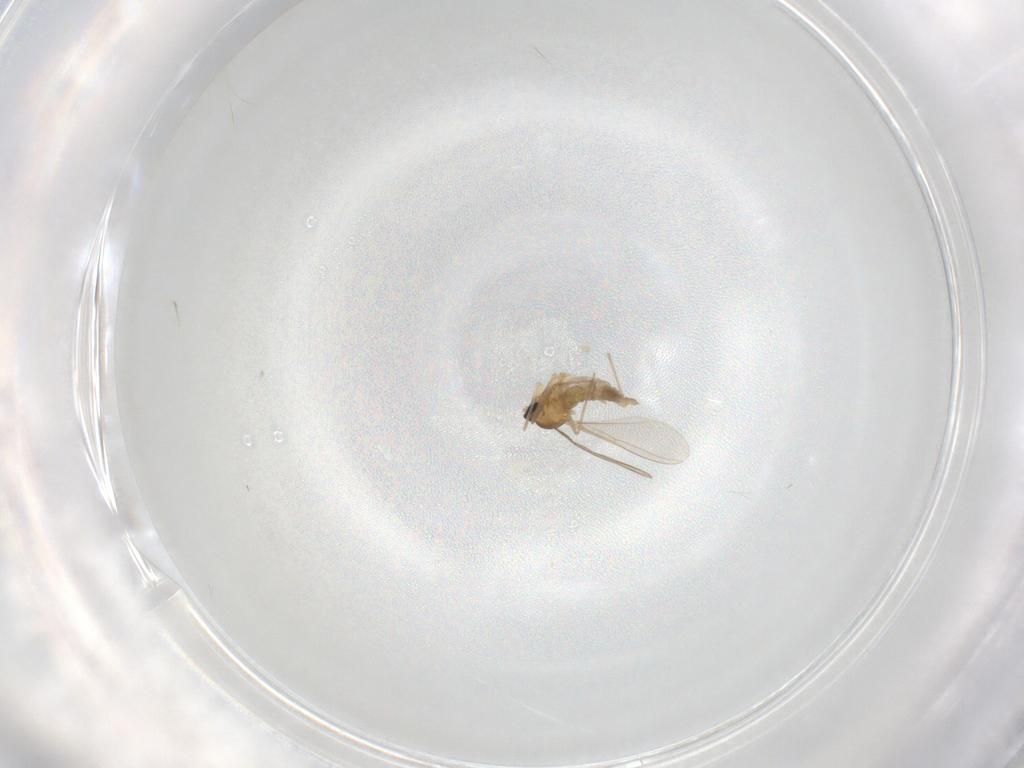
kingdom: Animalia
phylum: Arthropoda
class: Insecta
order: Diptera
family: Cecidomyiidae
